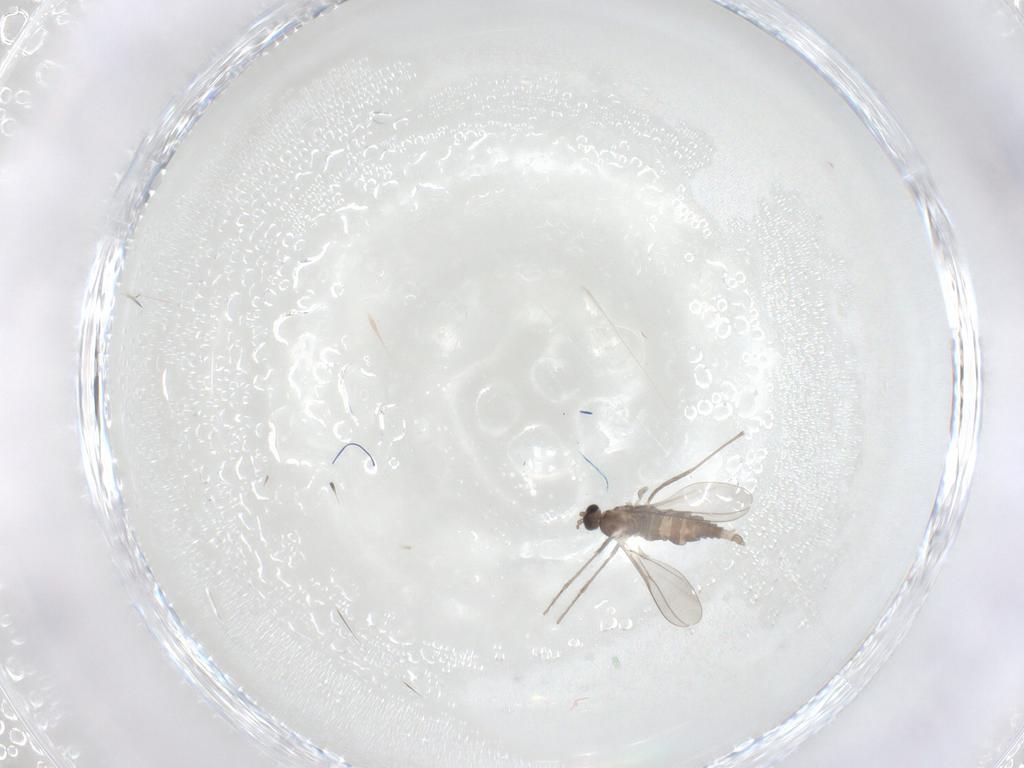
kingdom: Animalia
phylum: Arthropoda
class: Insecta
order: Diptera
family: Cecidomyiidae
